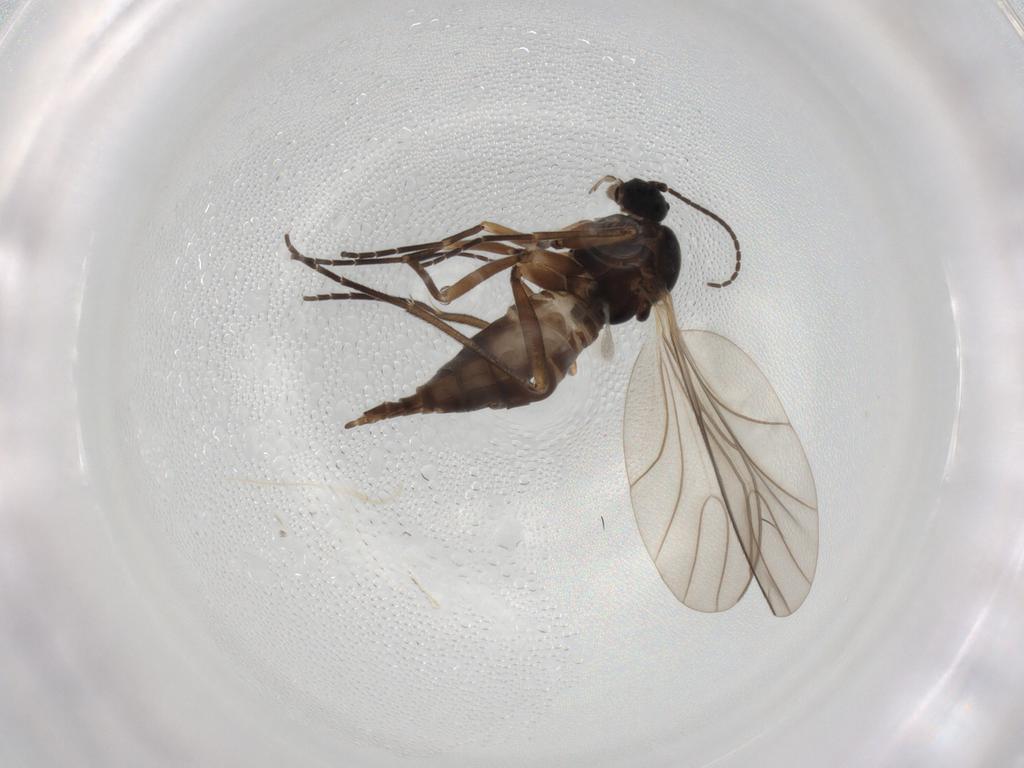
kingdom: Animalia
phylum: Arthropoda
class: Insecta
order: Diptera
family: Sciaridae
